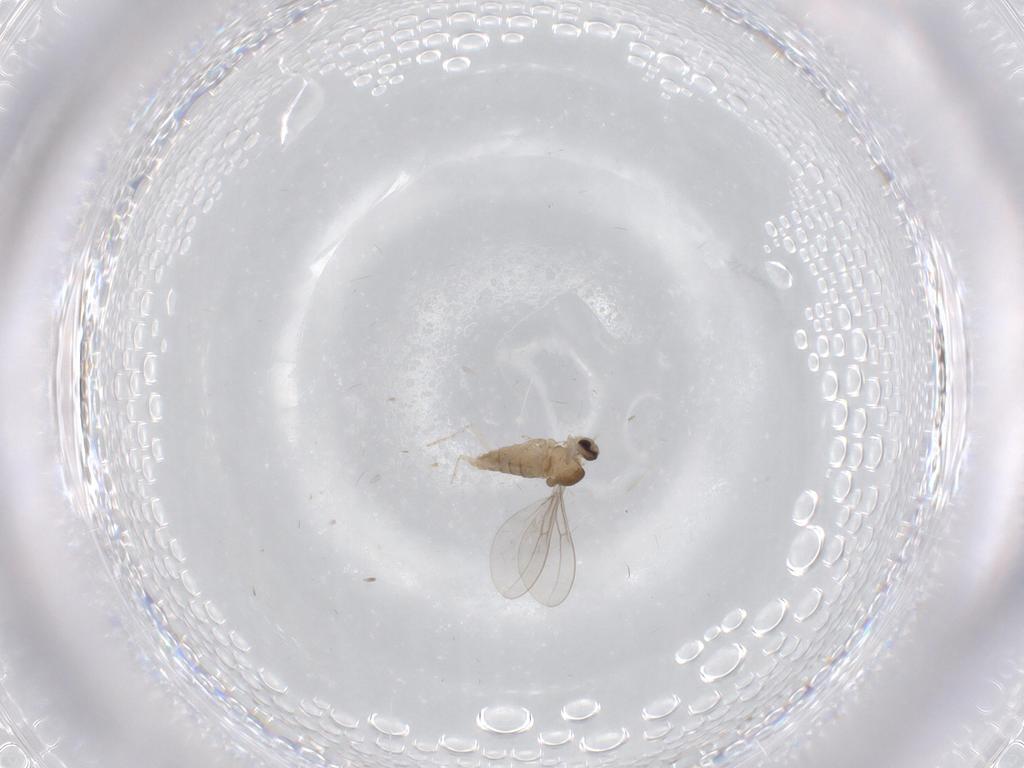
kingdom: Animalia
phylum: Arthropoda
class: Insecta
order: Diptera
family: Cecidomyiidae
